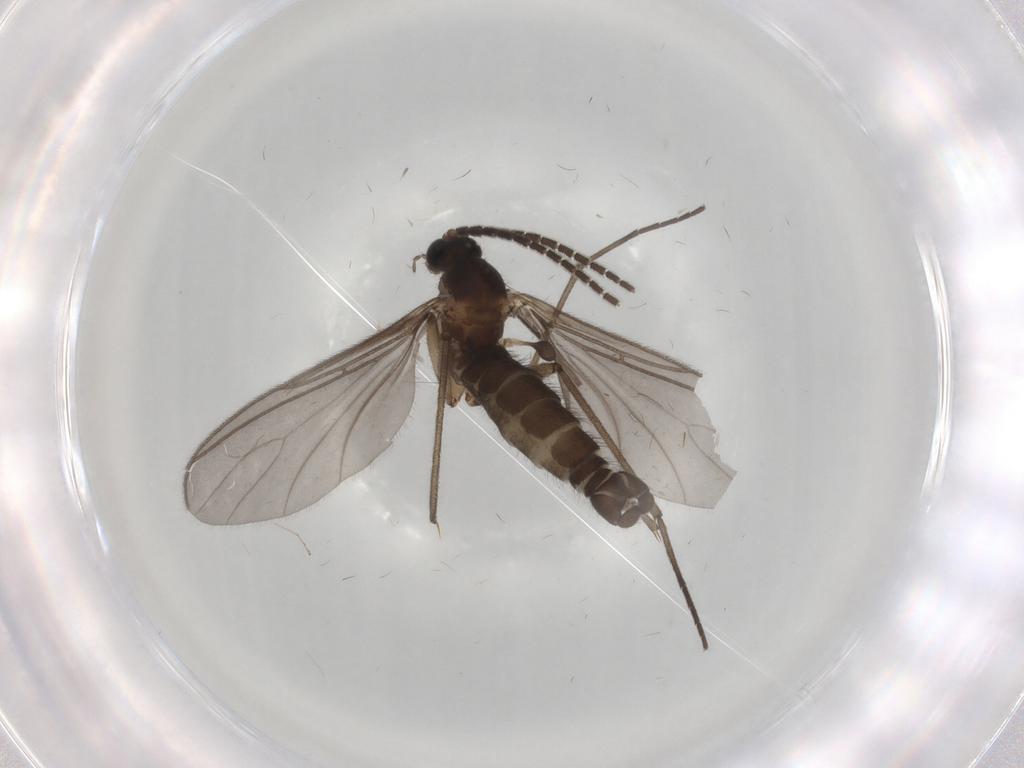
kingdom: Animalia
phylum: Arthropoda
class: Insecta
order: Diptera
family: Sciaridae
